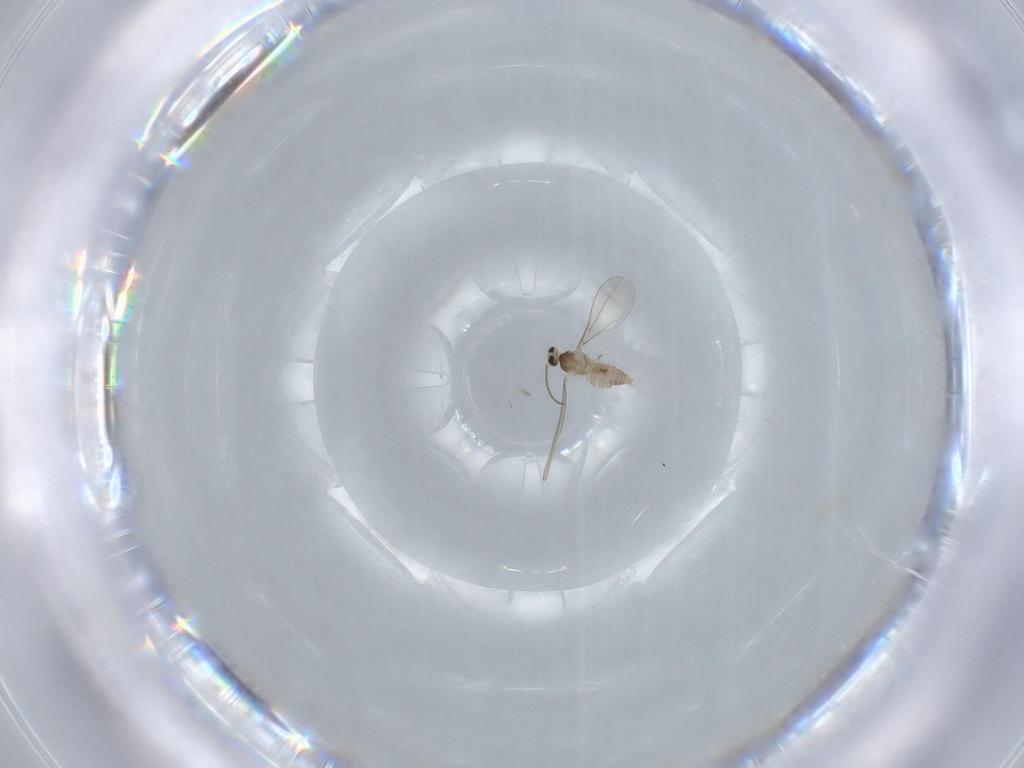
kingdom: Animalia
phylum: Arthropoda
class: Insecta
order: Diptera
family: Cecidomyiidae
